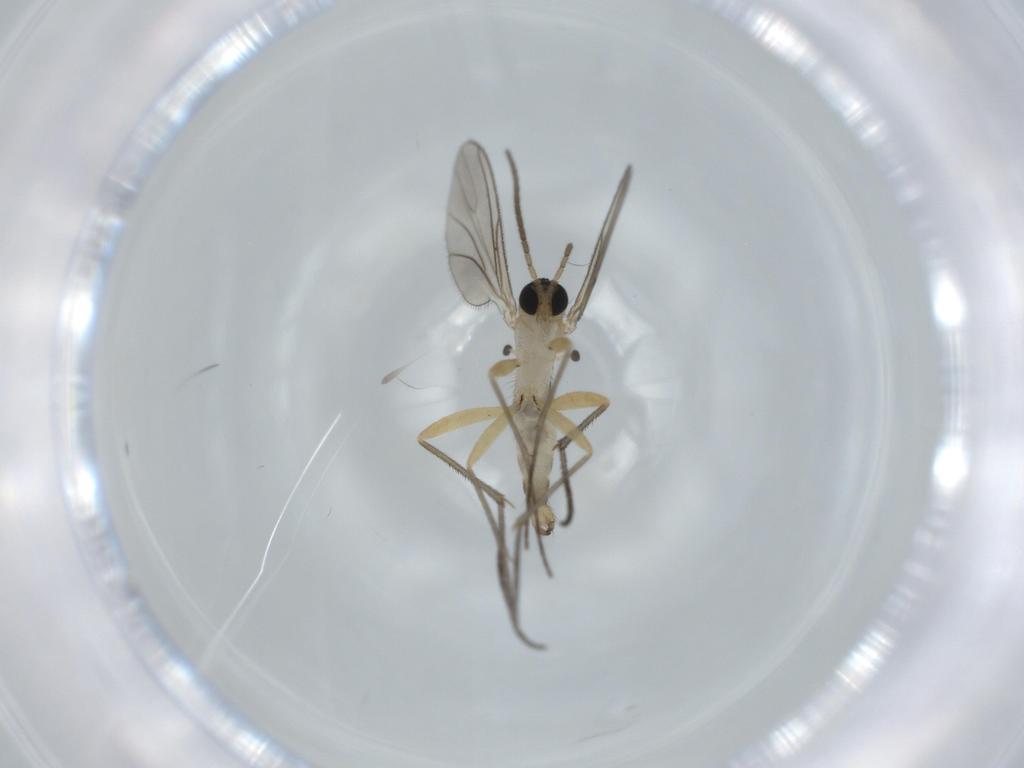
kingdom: Animalia
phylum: Arthropoda
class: Insecta
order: Diptera
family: Sciaridae
